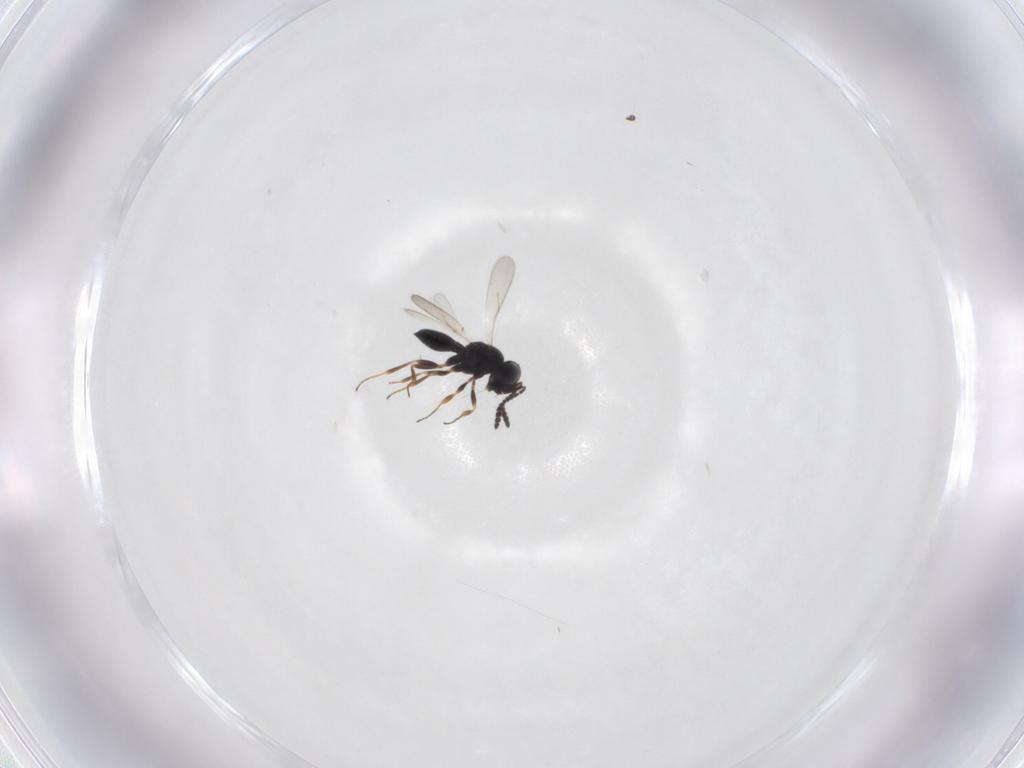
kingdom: Animalia
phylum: Arthropoda
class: Insecta
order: Hymenoptera
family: Scelionidae
